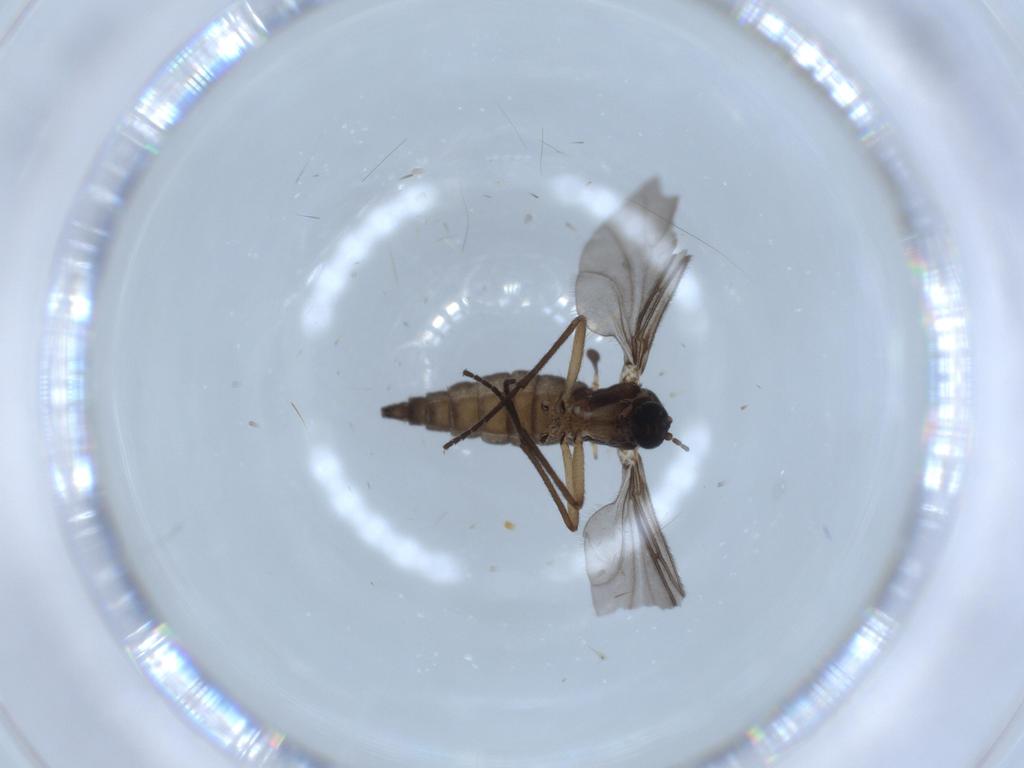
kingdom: Animalia
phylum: Arthropoda
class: Insecta
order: Diptera
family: Sciaridae
